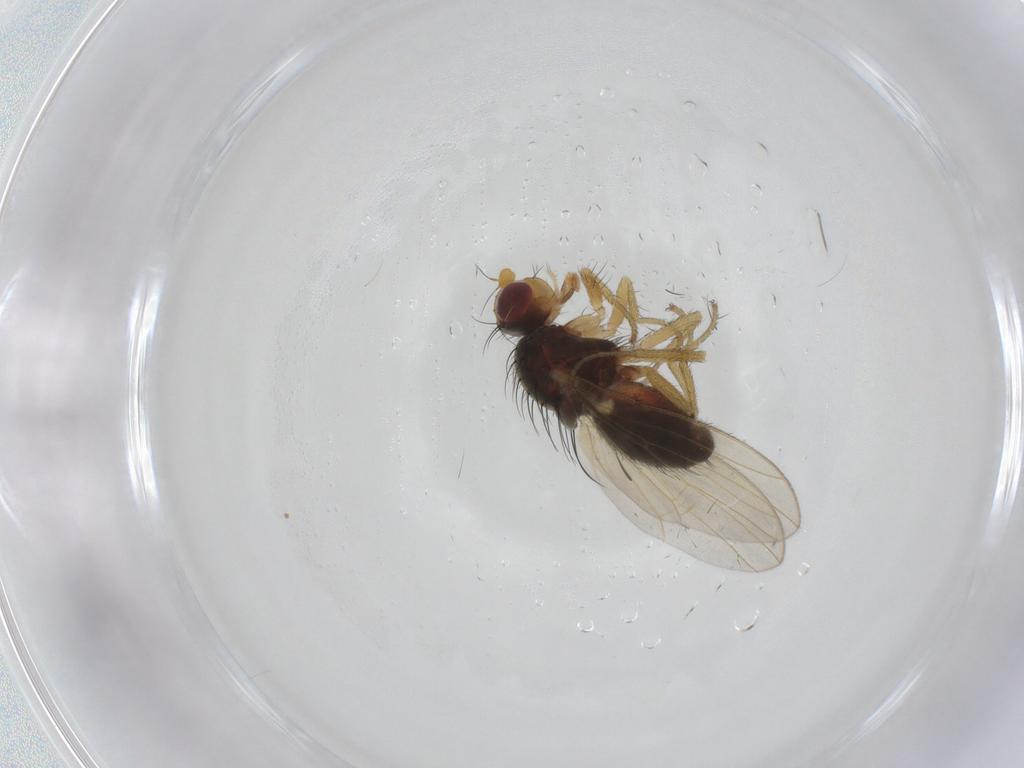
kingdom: Animalia
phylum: Arthropoda
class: Insecta
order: Diptera
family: Heleomyzidae
